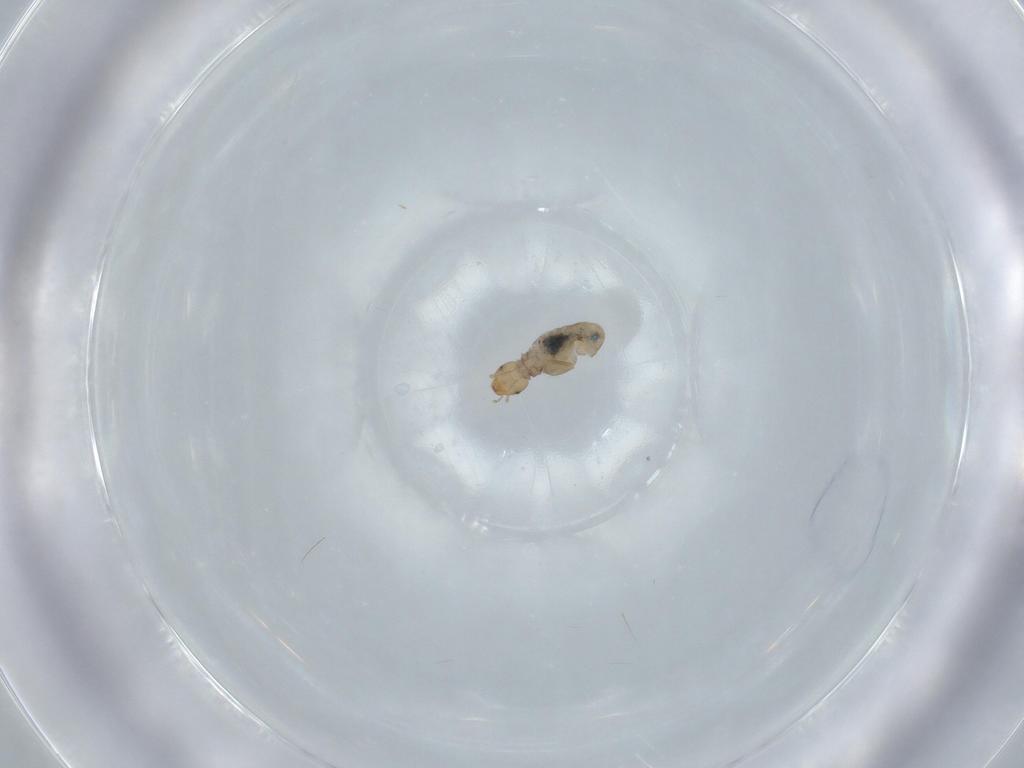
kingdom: Animalia
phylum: Arthropoda
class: Insecta
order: Psocodea
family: Liposcelididae
